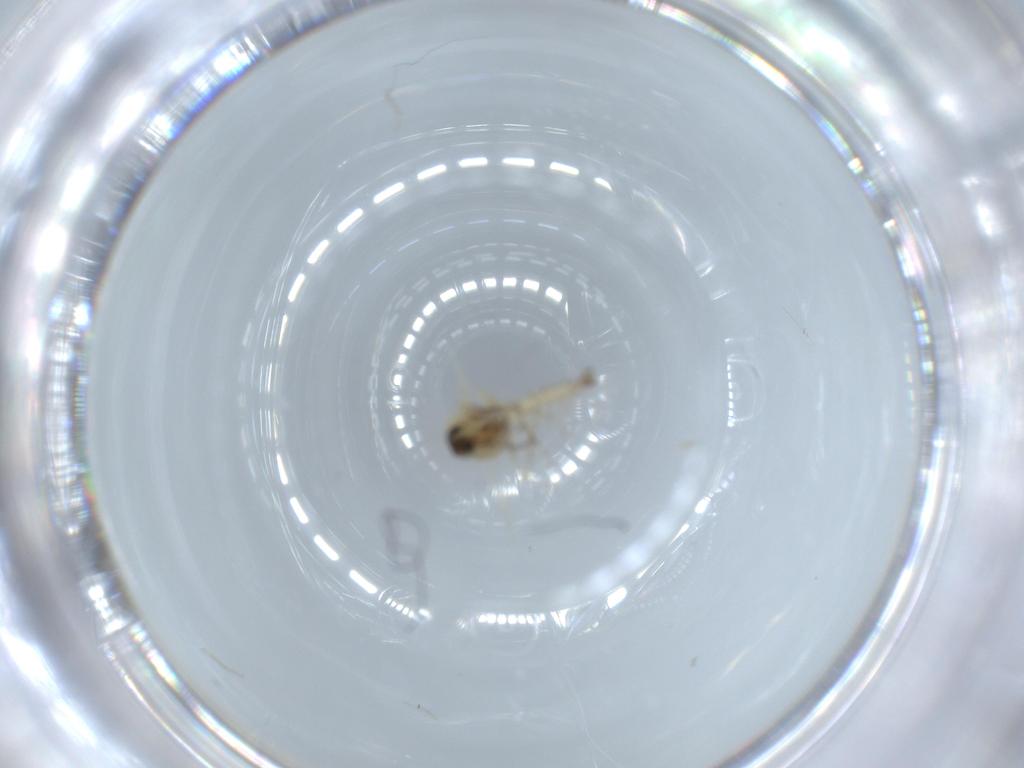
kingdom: Animalia
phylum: Arthropoda
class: Insecta
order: Diptera
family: Ceratopogonidae
